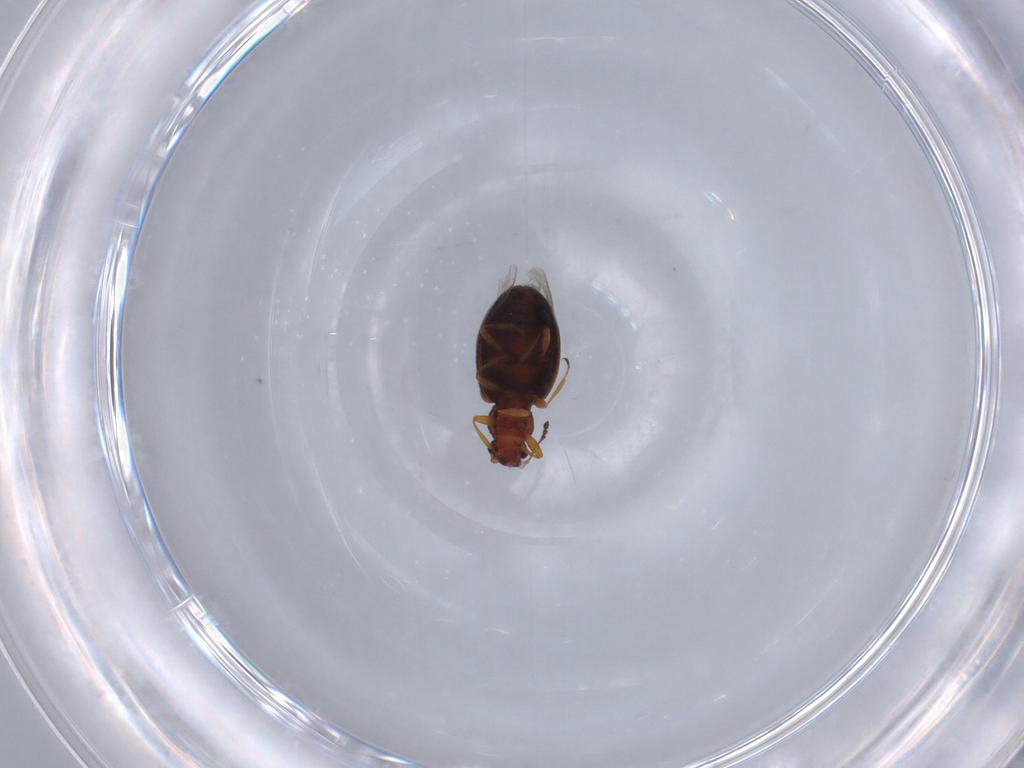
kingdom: Animalia
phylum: Arthropoda
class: Insecta
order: Coleoptera
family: Latridiidae
